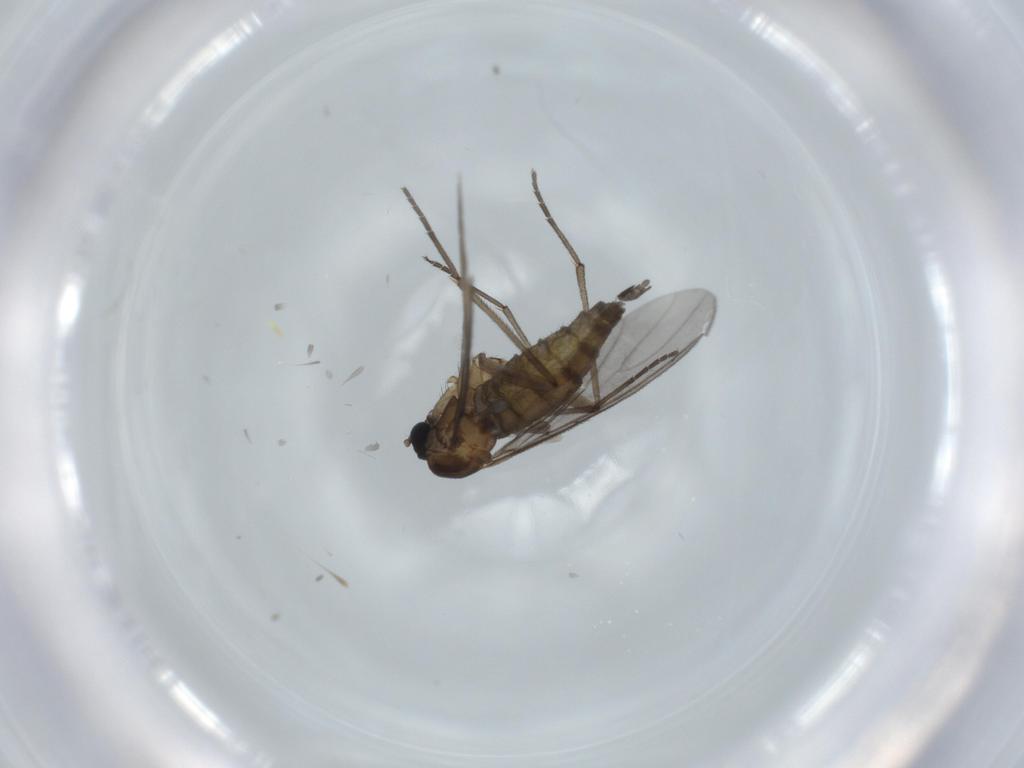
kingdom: Animalia
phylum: Arthropoda
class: Insecta
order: Diptera
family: Sciaridae
